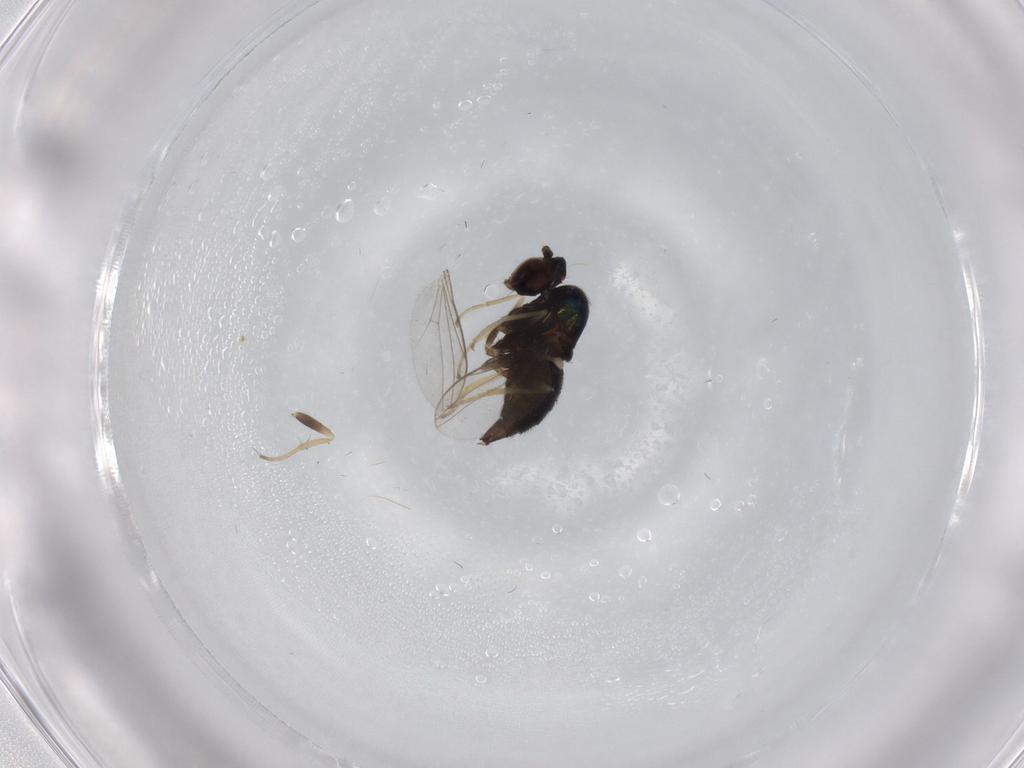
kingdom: Animalia
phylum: Arthropoda
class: Insecta
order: Diptera
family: Dolichopodidae
